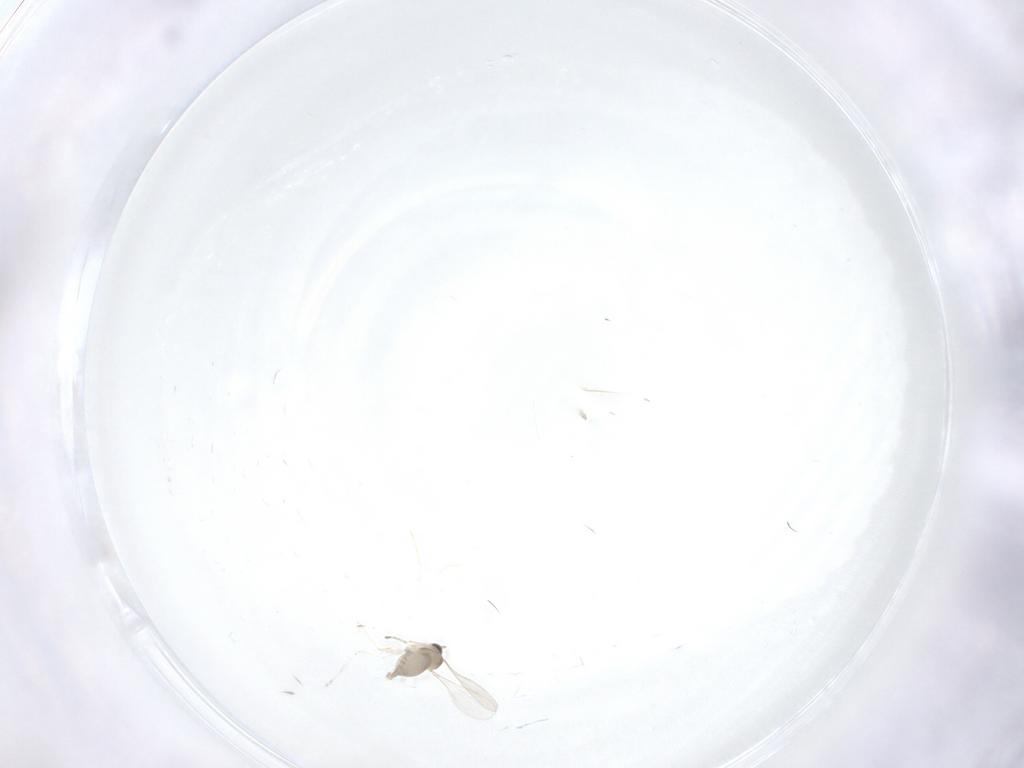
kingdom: Animalia
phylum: Arthropoda
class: Insecta
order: Diptera
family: Ceratopogonidae
